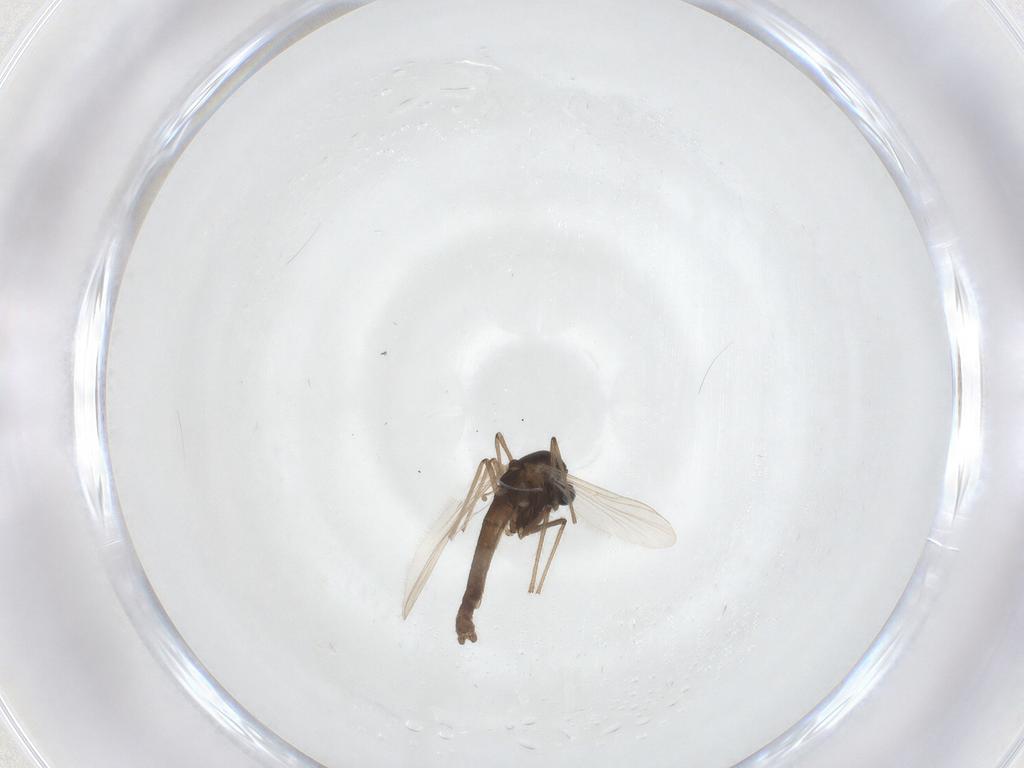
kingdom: Animalia
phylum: Arthropoda
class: Insecta
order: Diptera
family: Chironomidae
